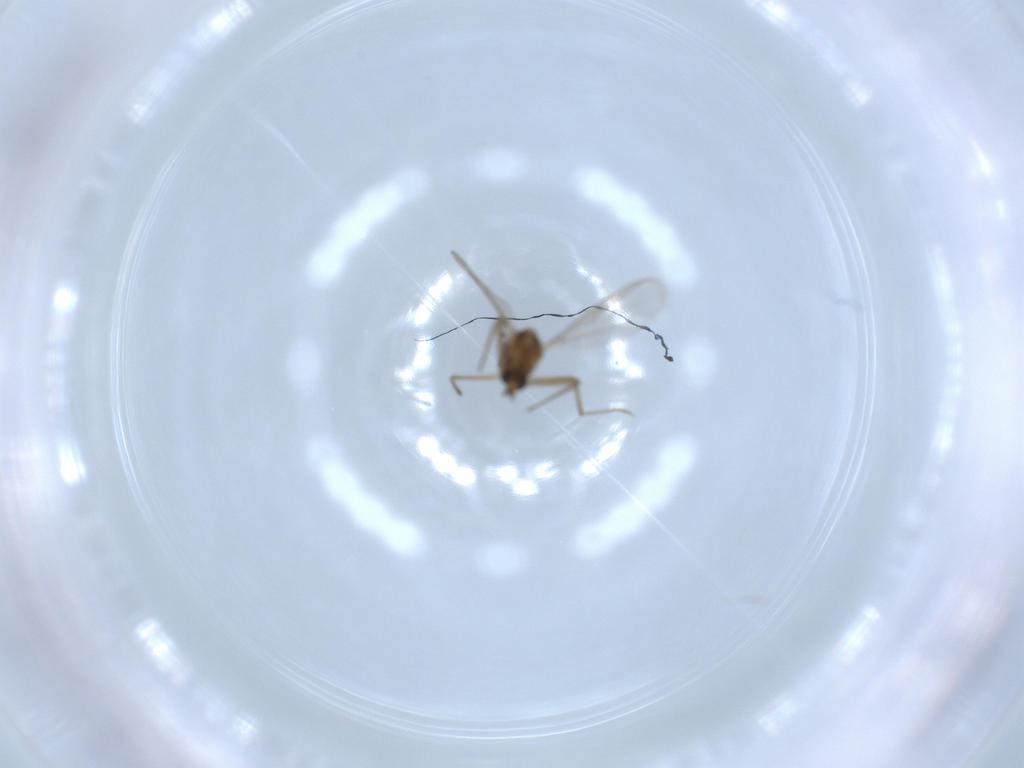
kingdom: Animalia
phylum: Arthropoda
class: Insecta
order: Diptera
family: Chironomidae
